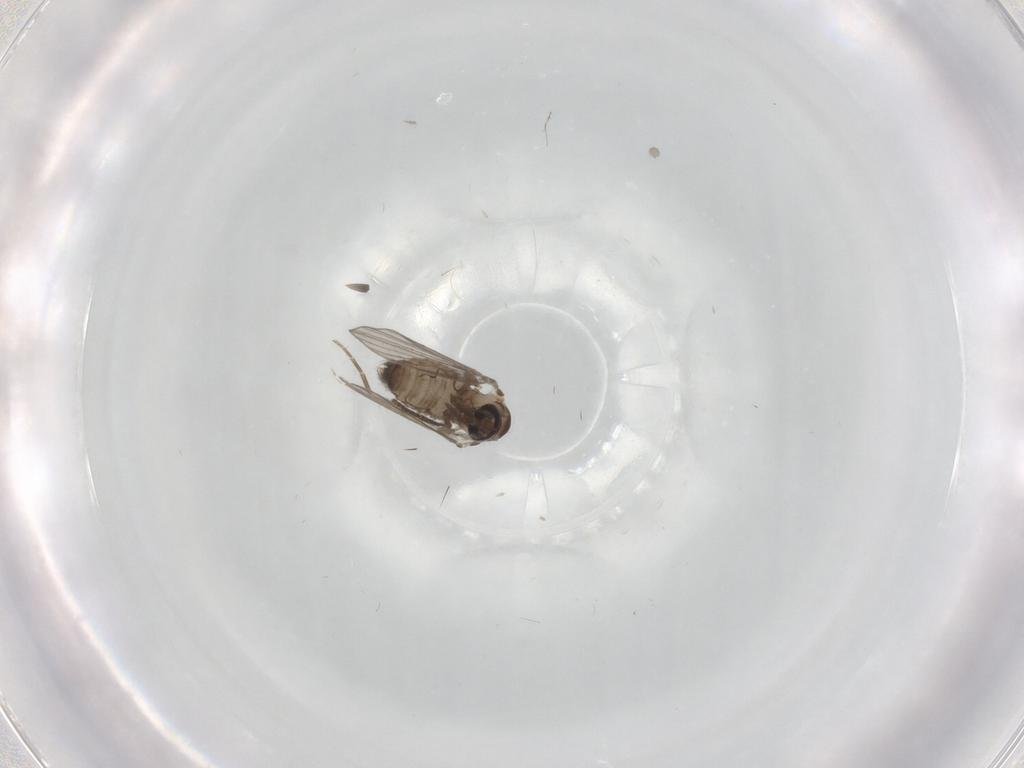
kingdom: Animalia
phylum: Arthropoda
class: Insecta
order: Diptera
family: Psychodidae
